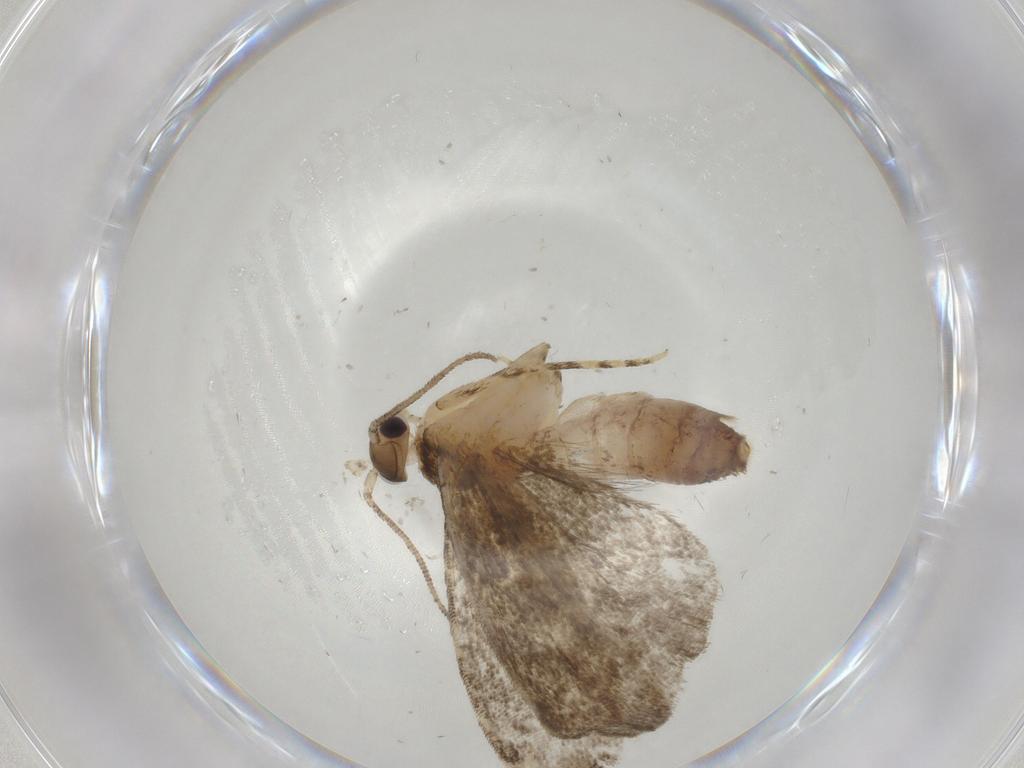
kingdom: Animalia
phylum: Arthropoda
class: Insecta
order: Lepidoptera
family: Tineidae
